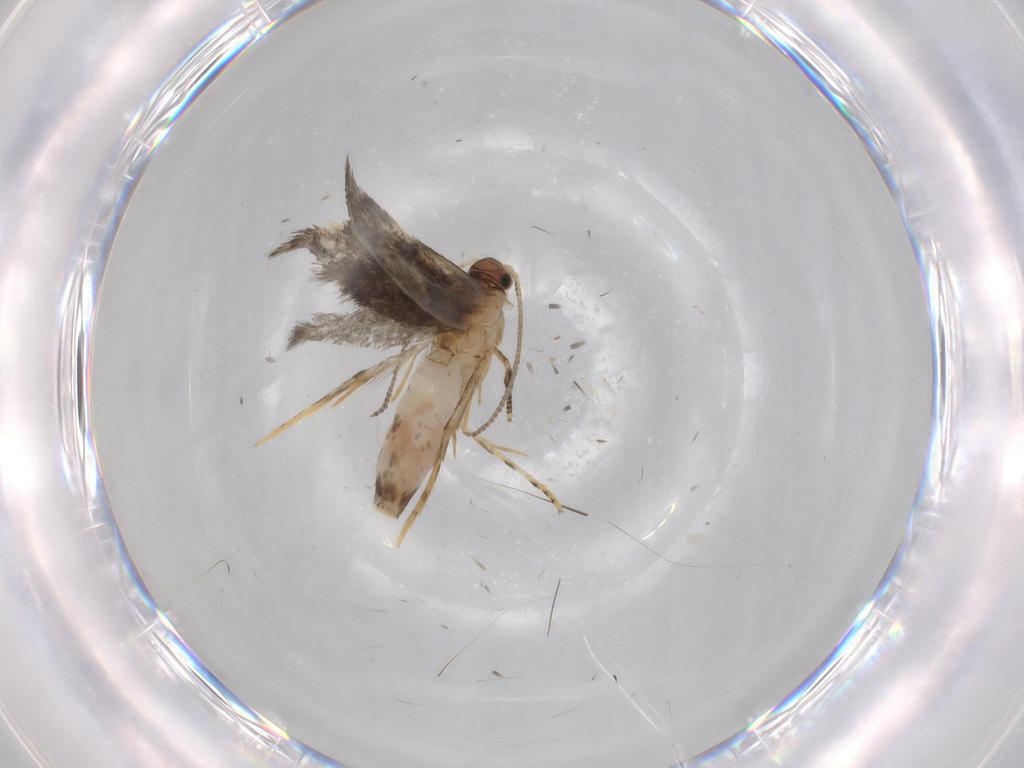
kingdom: Animalia
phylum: Arthropoda
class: Insecta
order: Lepidoptera
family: Tineidae
